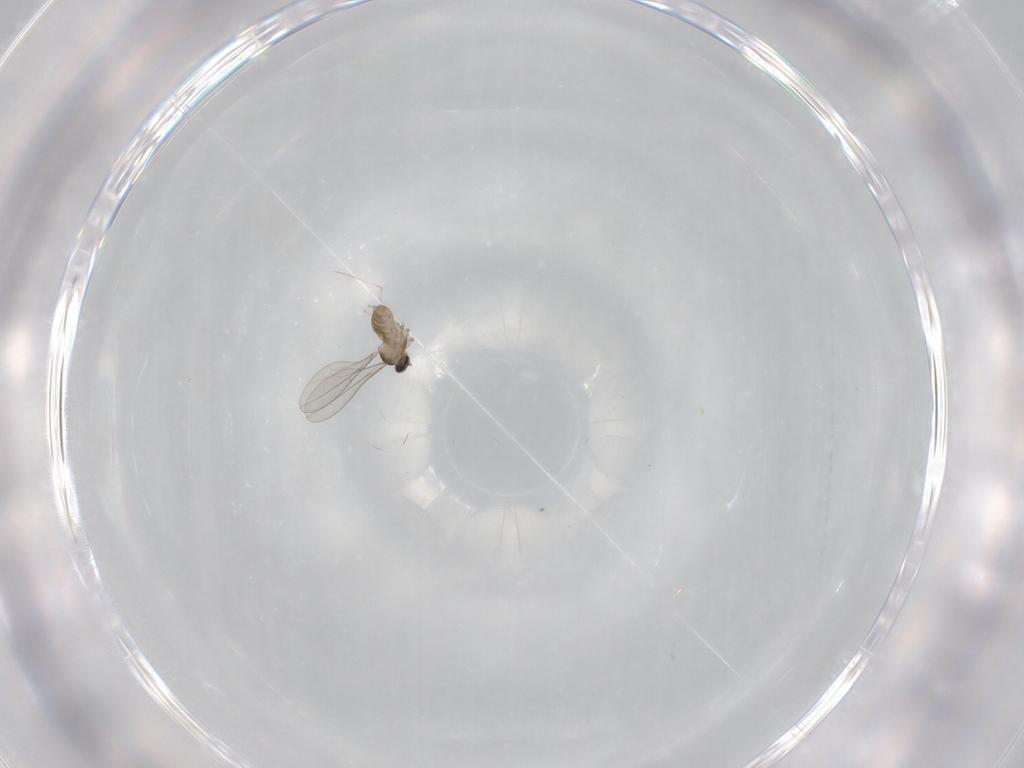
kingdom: Animalia
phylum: Arthropoda
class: Insecta
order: Diptera
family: Cecidomyiidae
